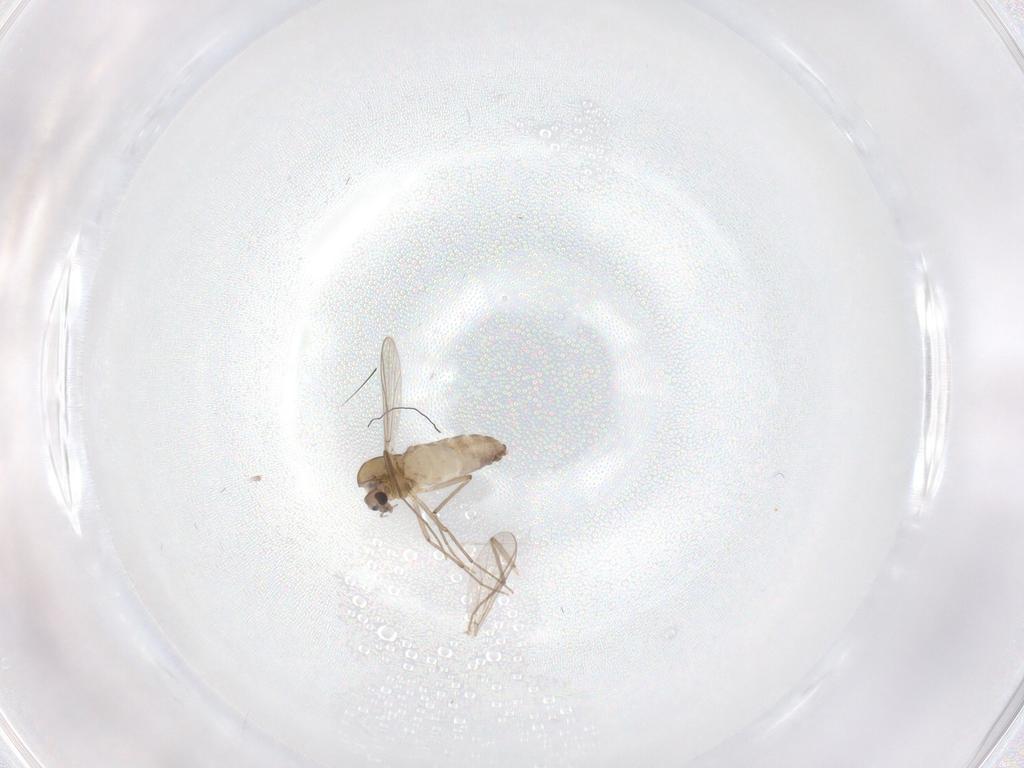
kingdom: Animalia
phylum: Arthropoda
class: Insecta
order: Diptera
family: Chironomidae
